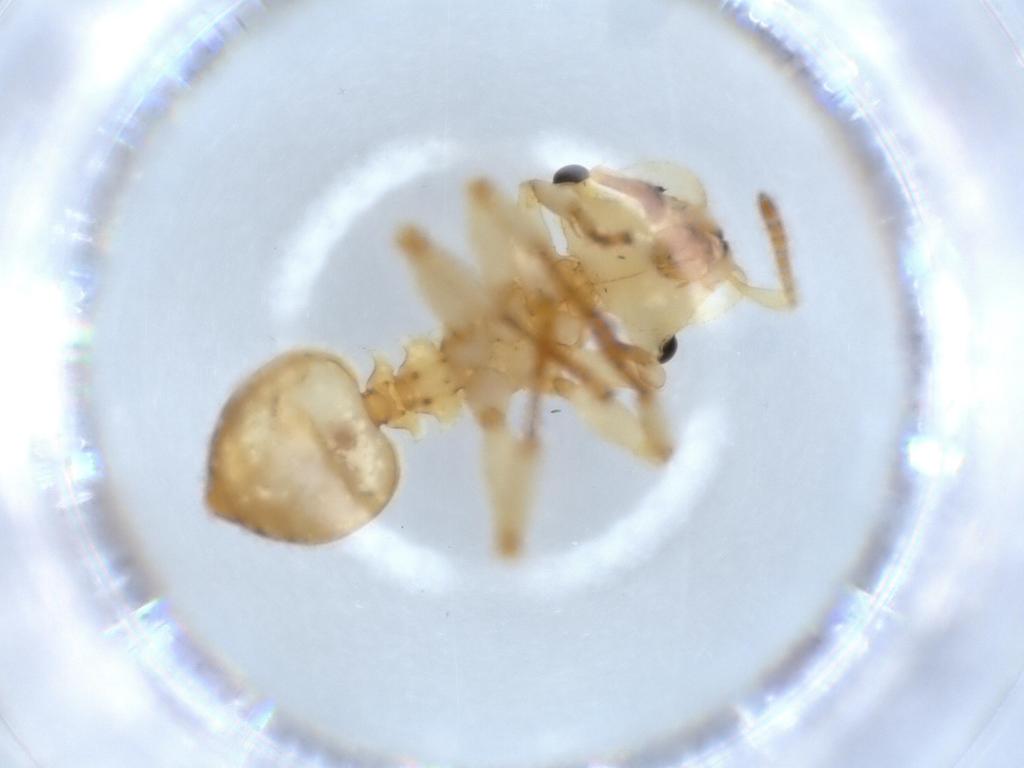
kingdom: Animalia
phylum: Arthropoda
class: Insecta
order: Hymenoptera
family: Formicidae
